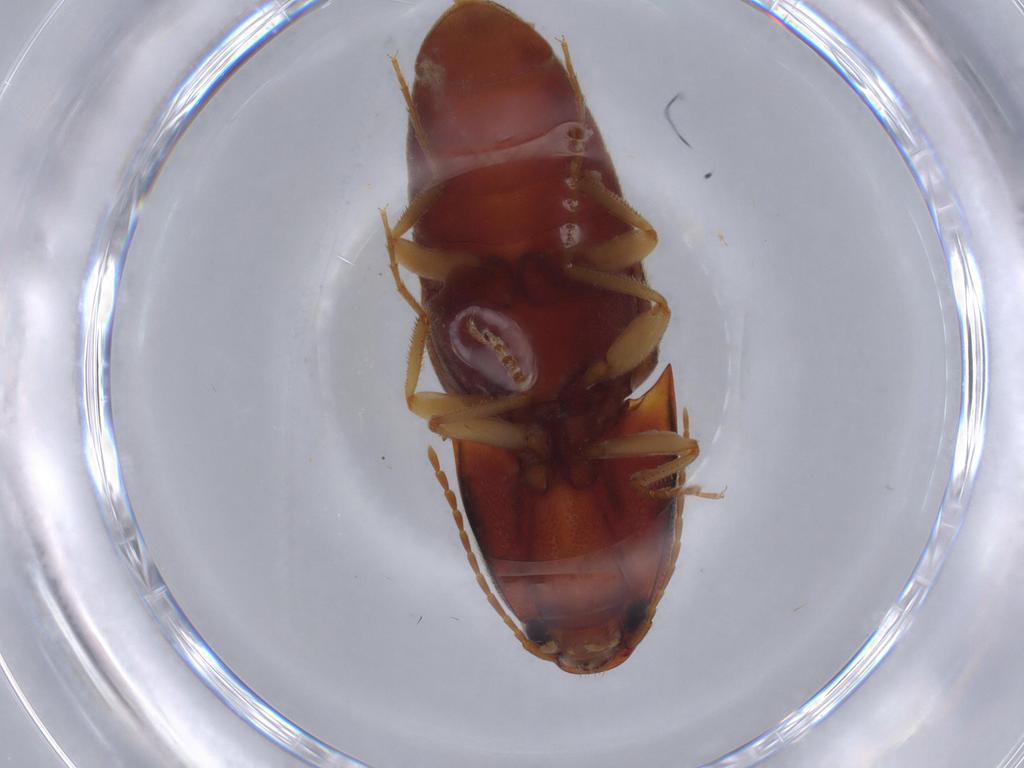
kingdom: Animalia
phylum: Arthropoda
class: Insecta
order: Coleoptera
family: Elateridae
